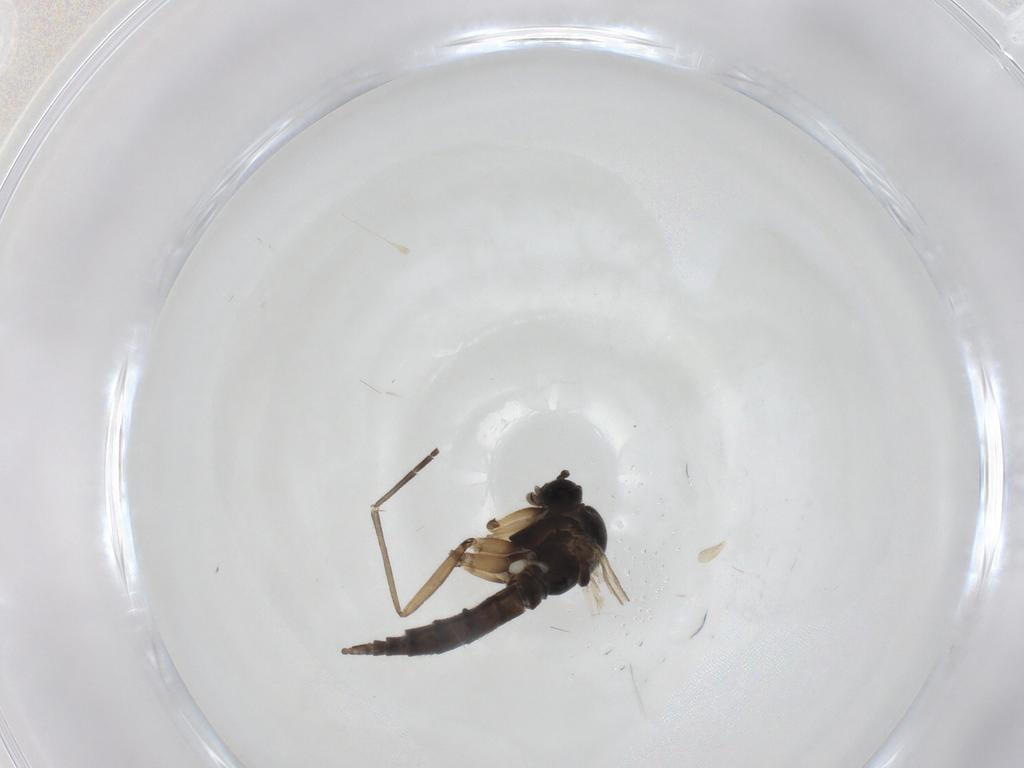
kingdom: Animalia
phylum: Arthropoda
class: Insecta
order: Diptera
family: Sciaridae
